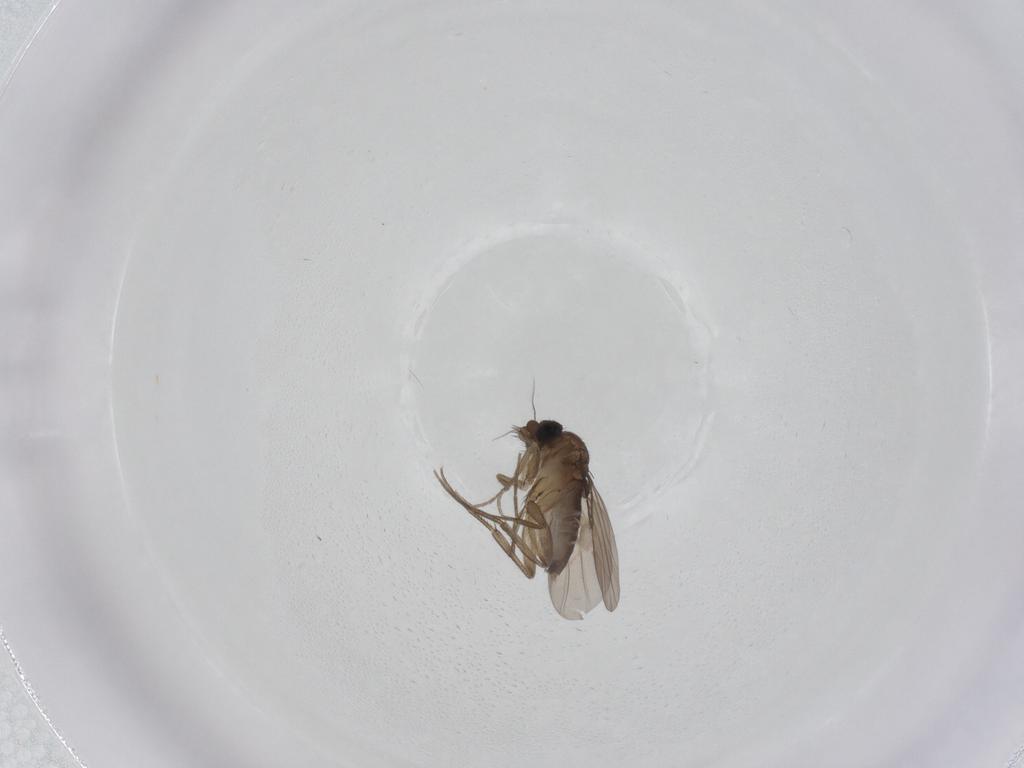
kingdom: Animalia
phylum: Arthropoda
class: Insecta
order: Diptera
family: Phoridae
